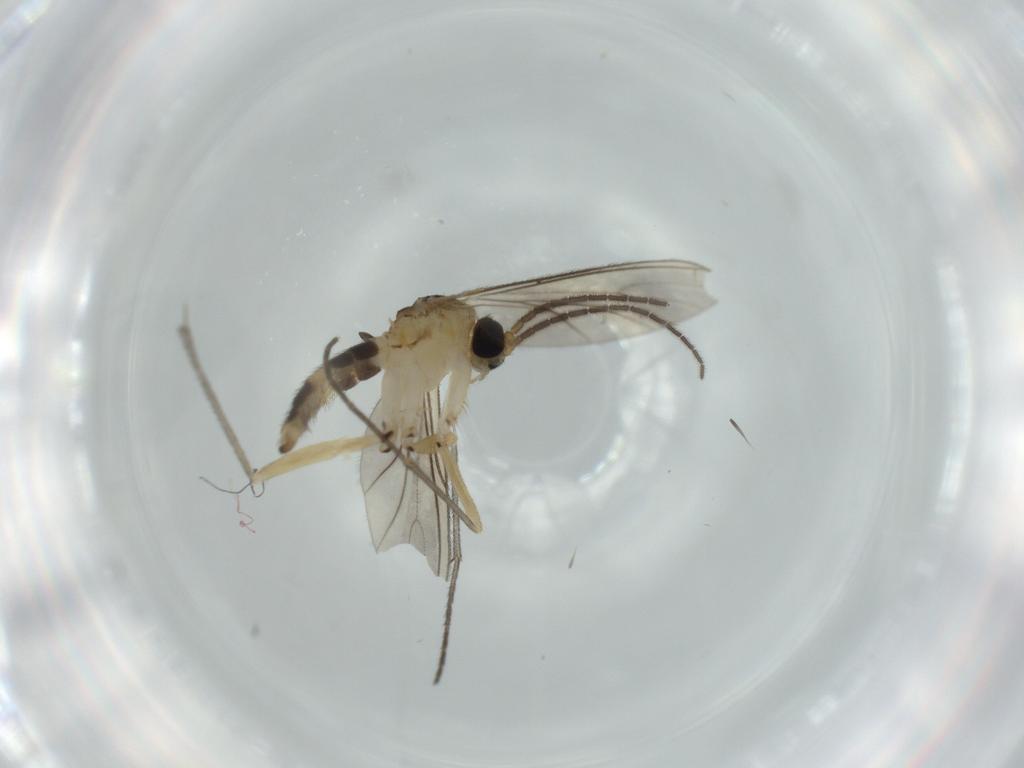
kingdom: Animalia
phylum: Arthropoda
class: Insecta
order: Diptera
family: Sciaridae
